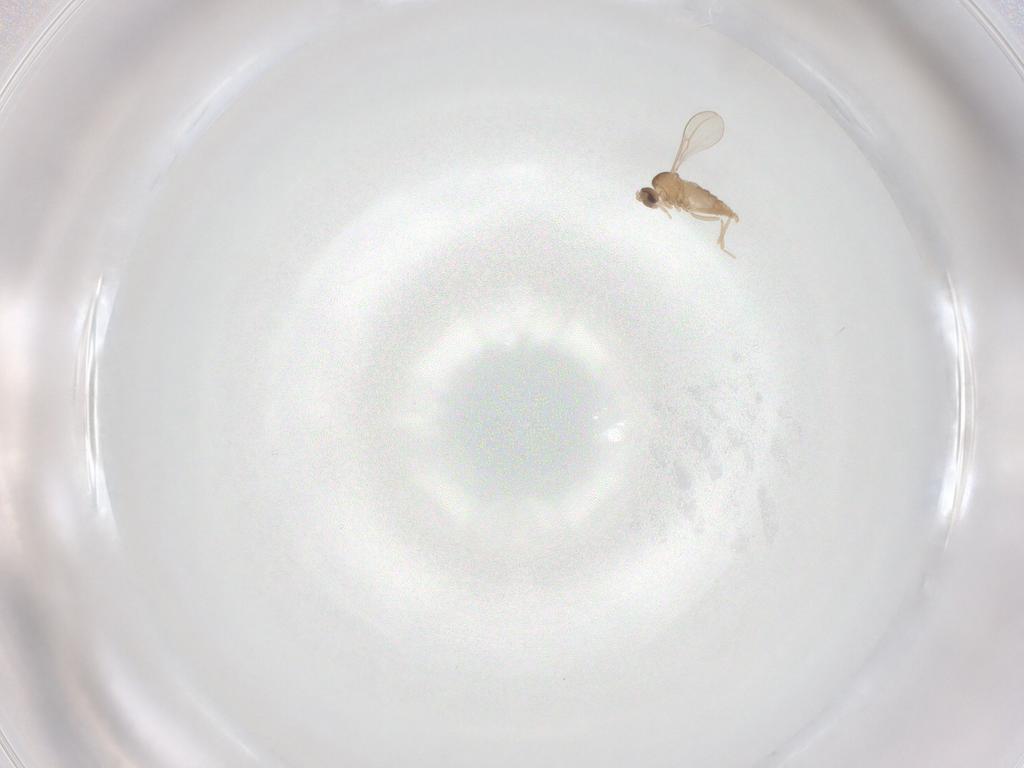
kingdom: Animalia
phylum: Arthropoda
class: Insecta
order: Diptera
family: Cecidomyiidae
